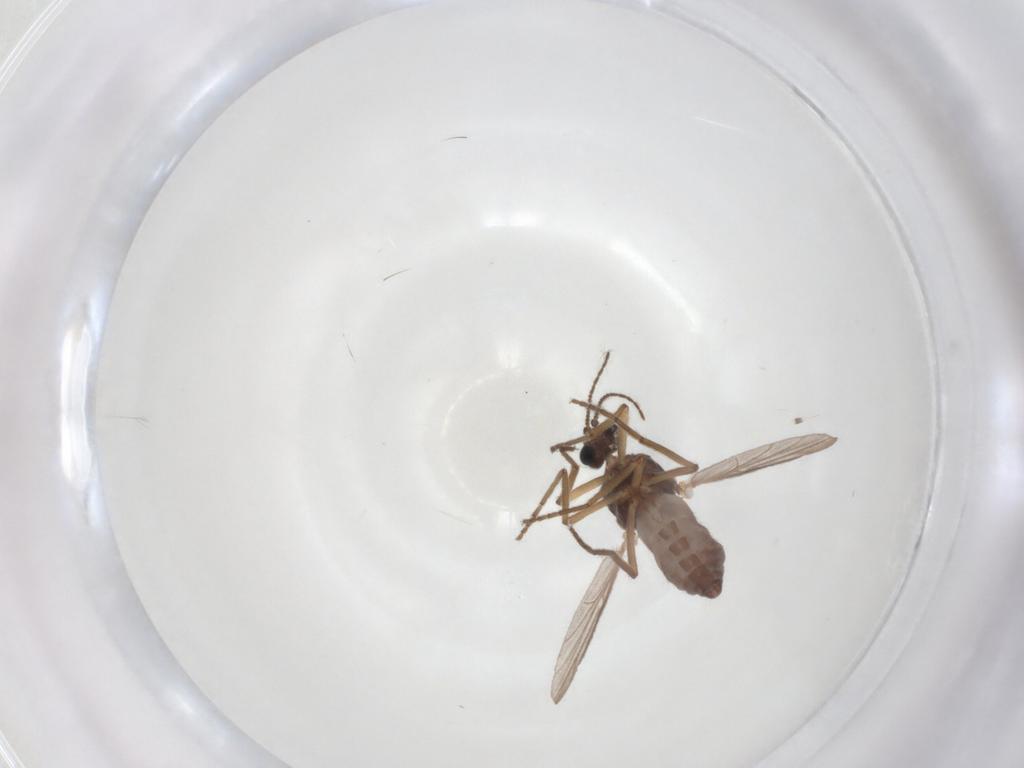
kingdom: Animalia
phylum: Arthropoda
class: Insecta
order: Diptera
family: Ceratopogonidae
